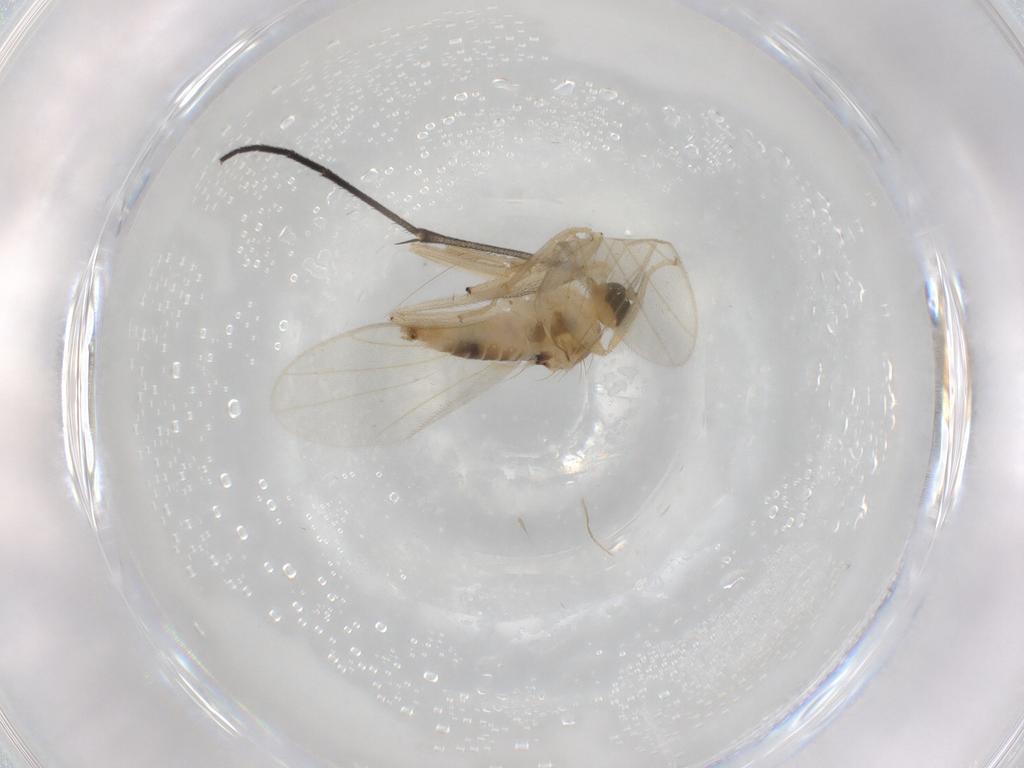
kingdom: Animalia
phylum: Arthropoda
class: Insecta
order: Diptera
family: Hybotidae
